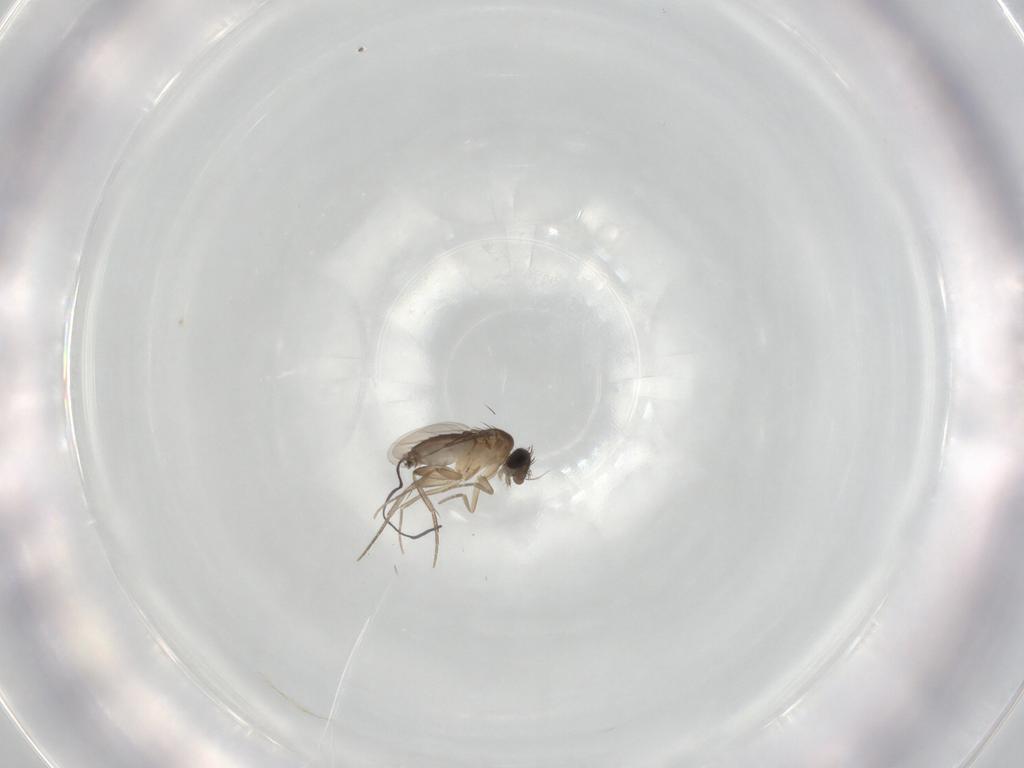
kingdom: Animalia
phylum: Arthropoda
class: Insecta
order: Diptera
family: Phoridae
